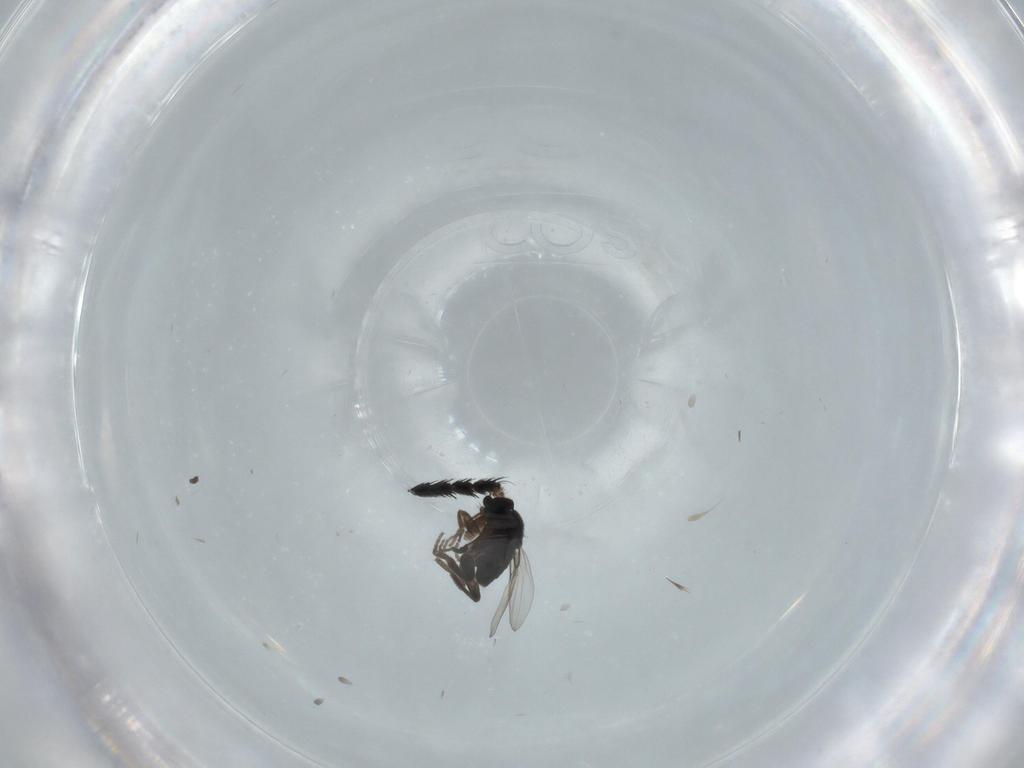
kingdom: Animalia
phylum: Arthropoda
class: Insecta
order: Diptera
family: Phoridae
